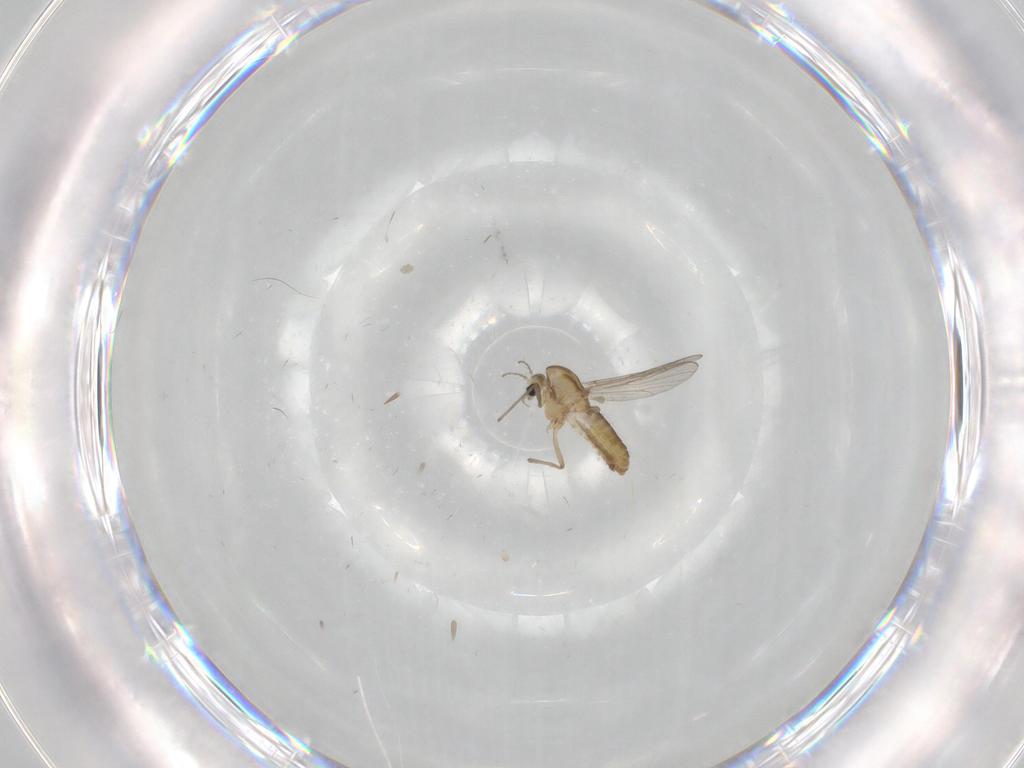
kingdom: Animalia
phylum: Arthropoda
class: Insecta
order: Diptera
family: Chironomidae
